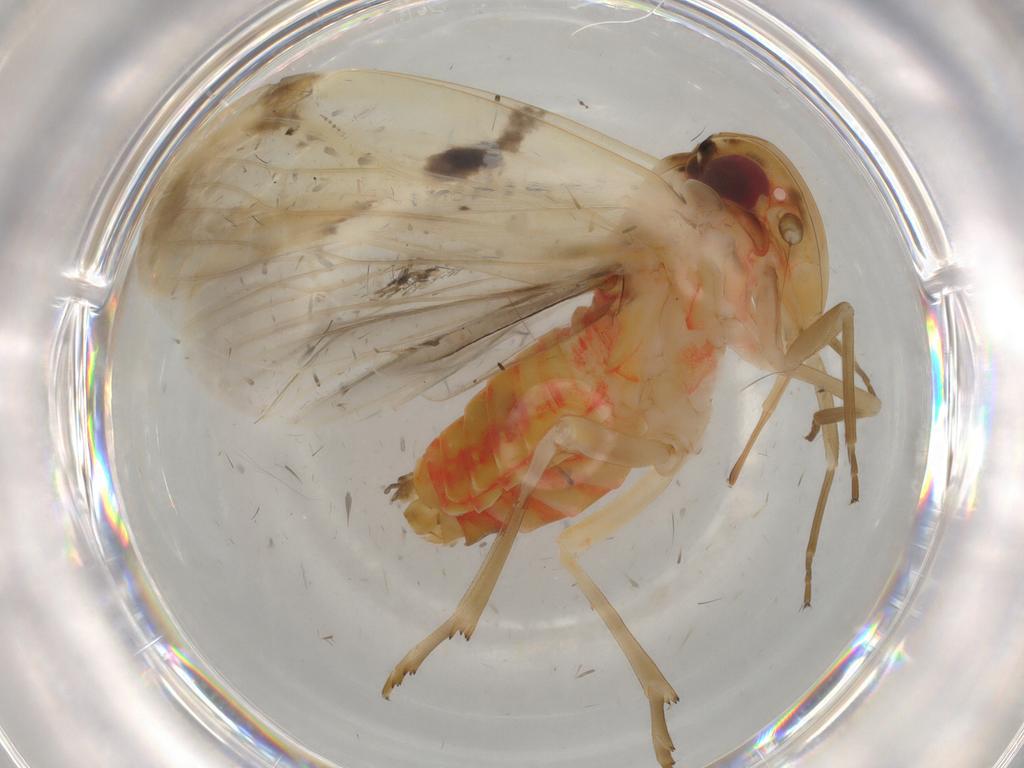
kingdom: Animalia
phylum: Arthropoda
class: Insecta
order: Hemiptera
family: Achilidae
